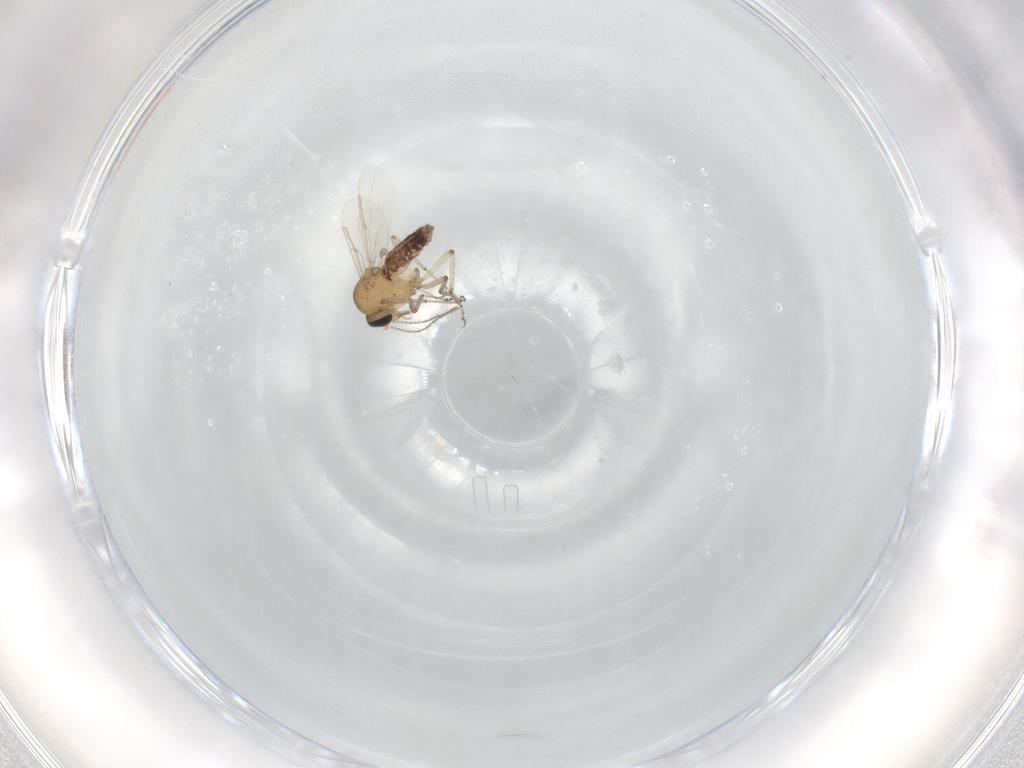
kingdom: Animalia
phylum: Arthropoda
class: Insecta
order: Diptera
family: Ceratopogonidae
